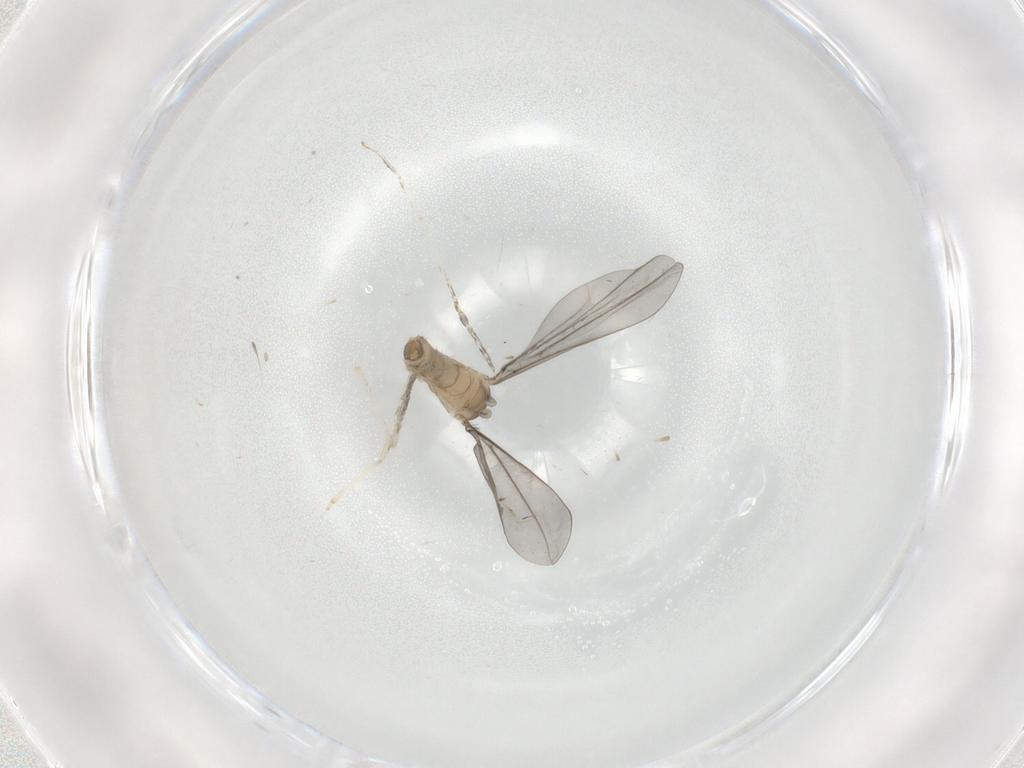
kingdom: Animalia
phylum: Arthropoda
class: Insecta
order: Diptera
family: Cecidomyiidae
